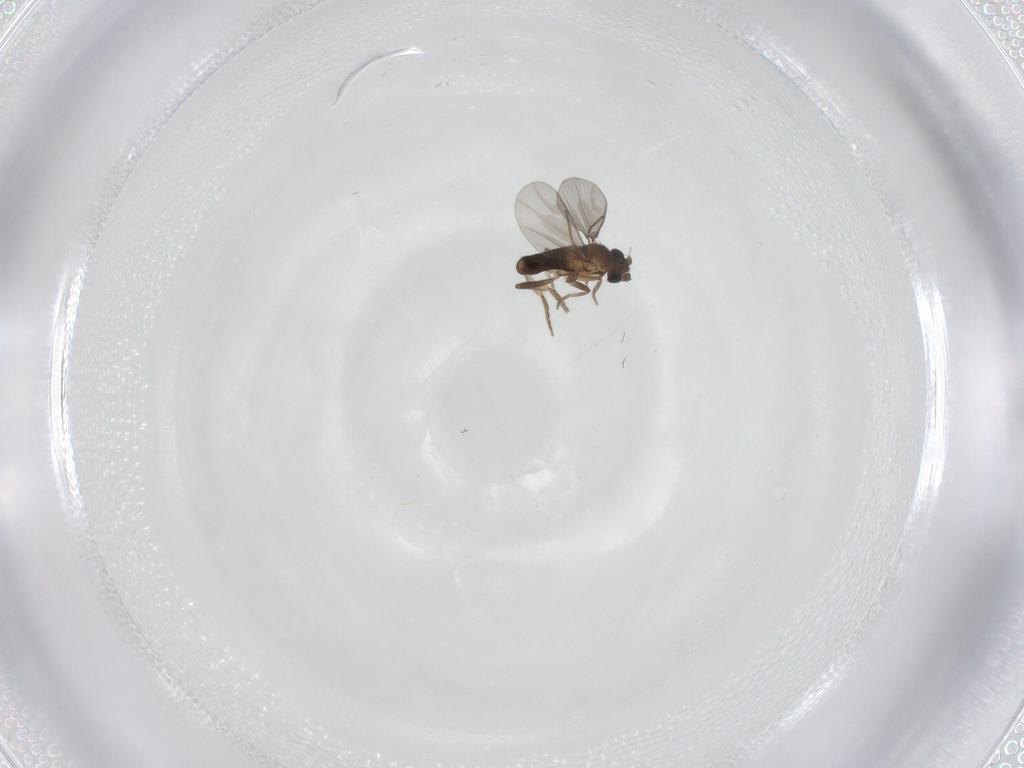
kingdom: Animalia
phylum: Arthropoda
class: Insecta
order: Diptera
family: Phoridae
